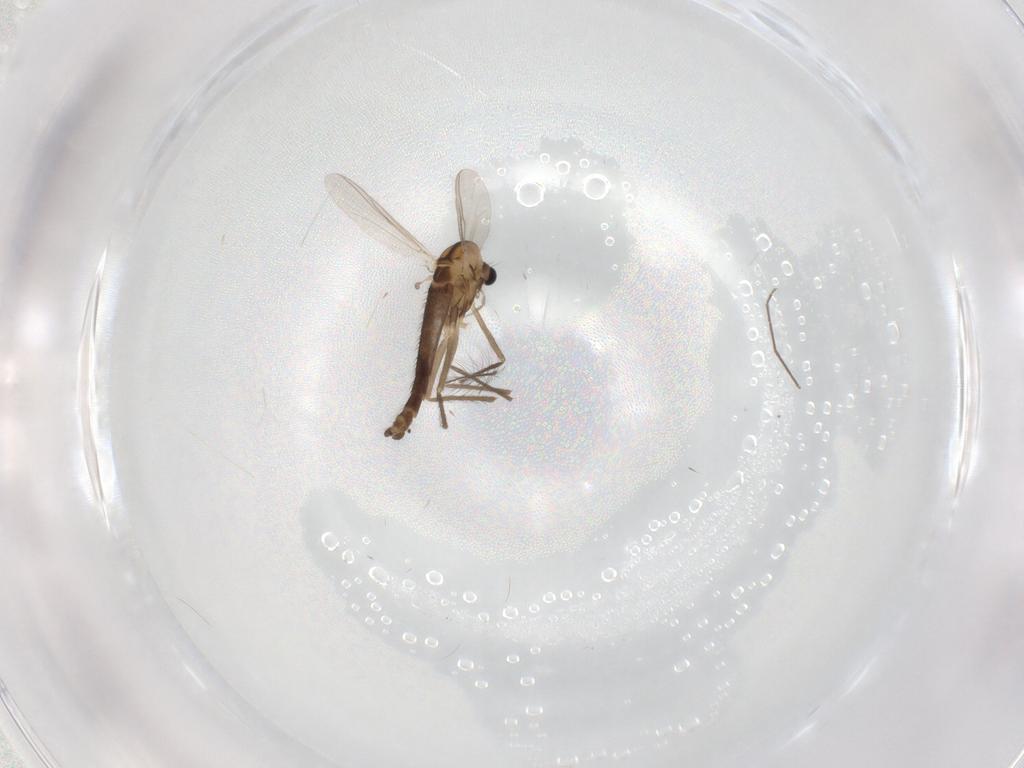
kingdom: Animalia
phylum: Arthropoda
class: Insecta
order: Diptera
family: Chironomidae
